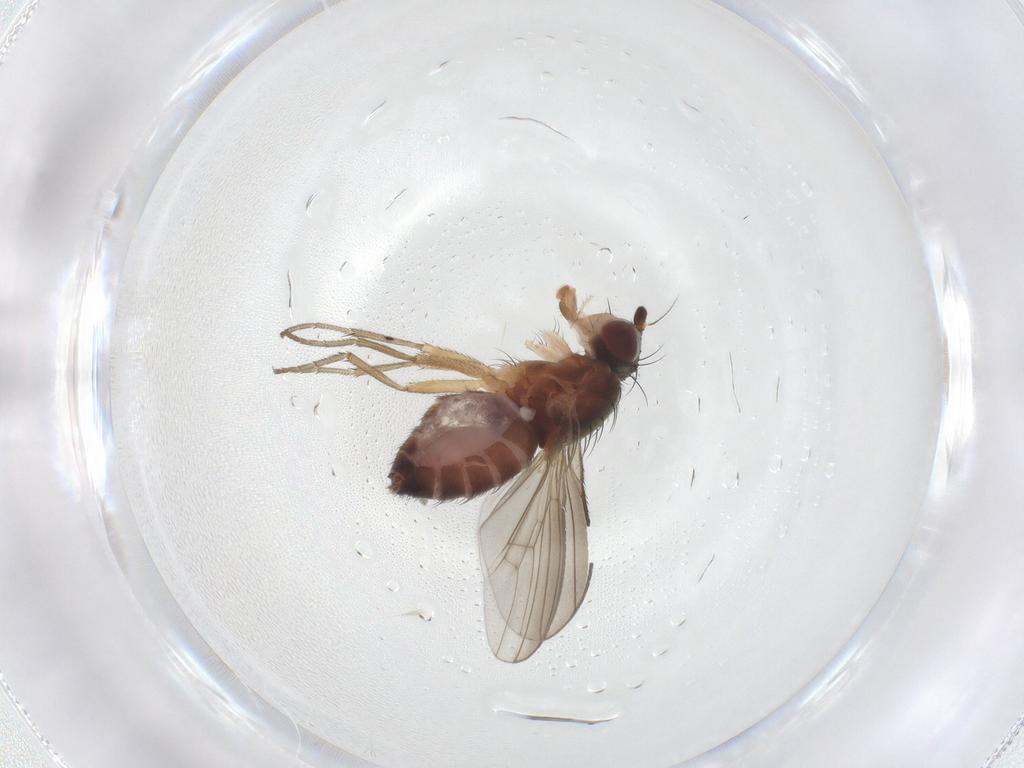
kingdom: Animalia
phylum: Arthropoda
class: Insecta
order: Diptera
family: Heleomyzidae
